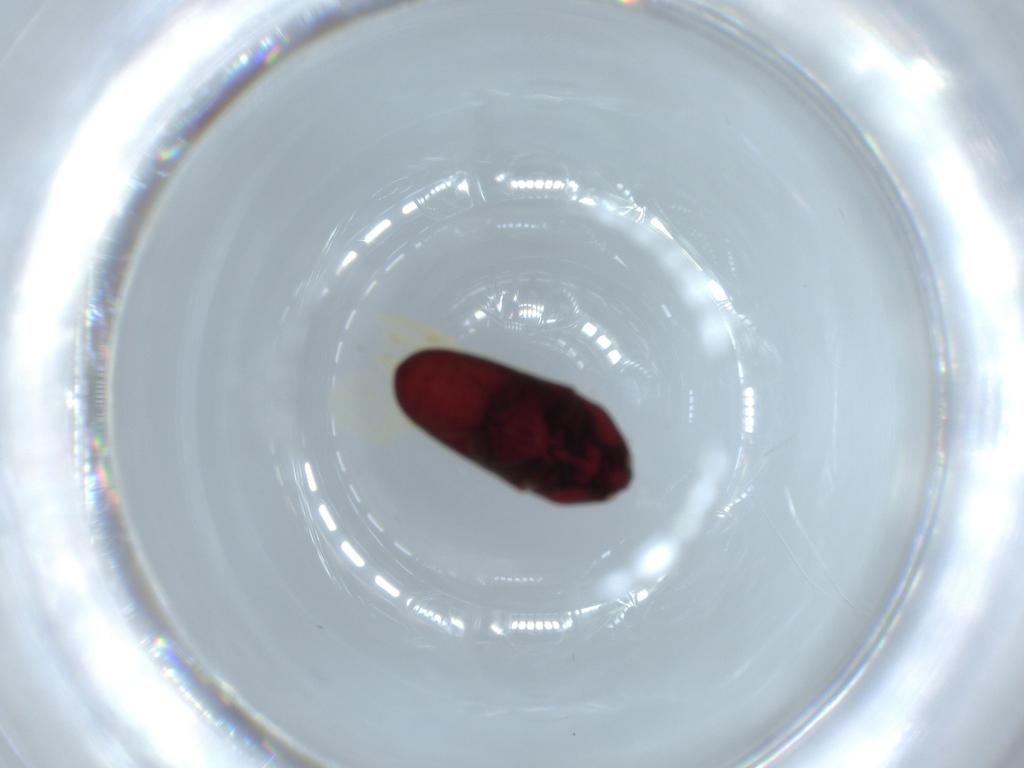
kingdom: Animalia
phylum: Arthropoda
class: Insecta
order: Coleoptera
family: Throscidae
